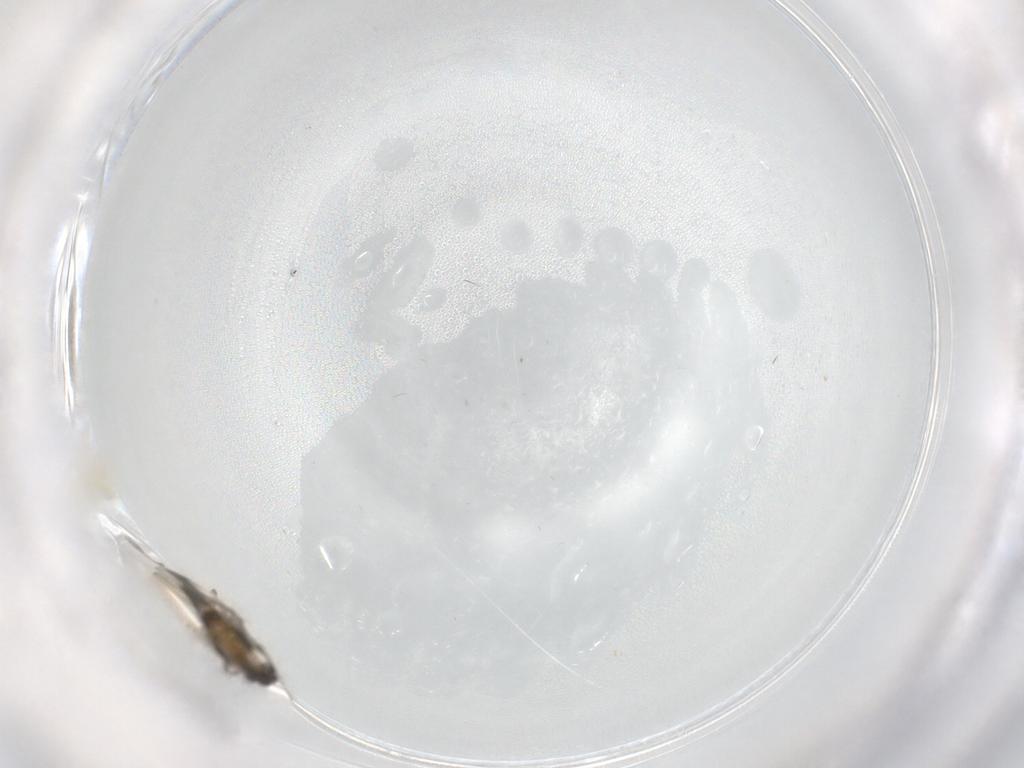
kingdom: Animalia
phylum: Arthropoda
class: Insecta
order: Diptera
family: Chironomidae
